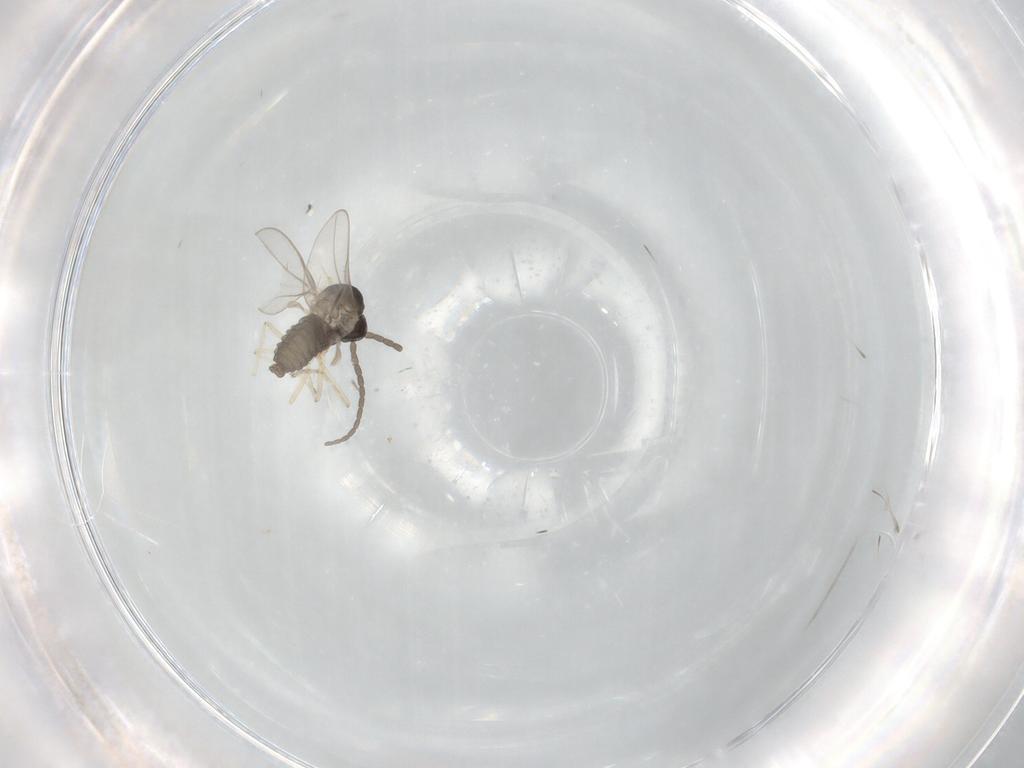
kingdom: Animalia
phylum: Arthropoda
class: Insecta
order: Diptera
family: Cecidomyiidae
